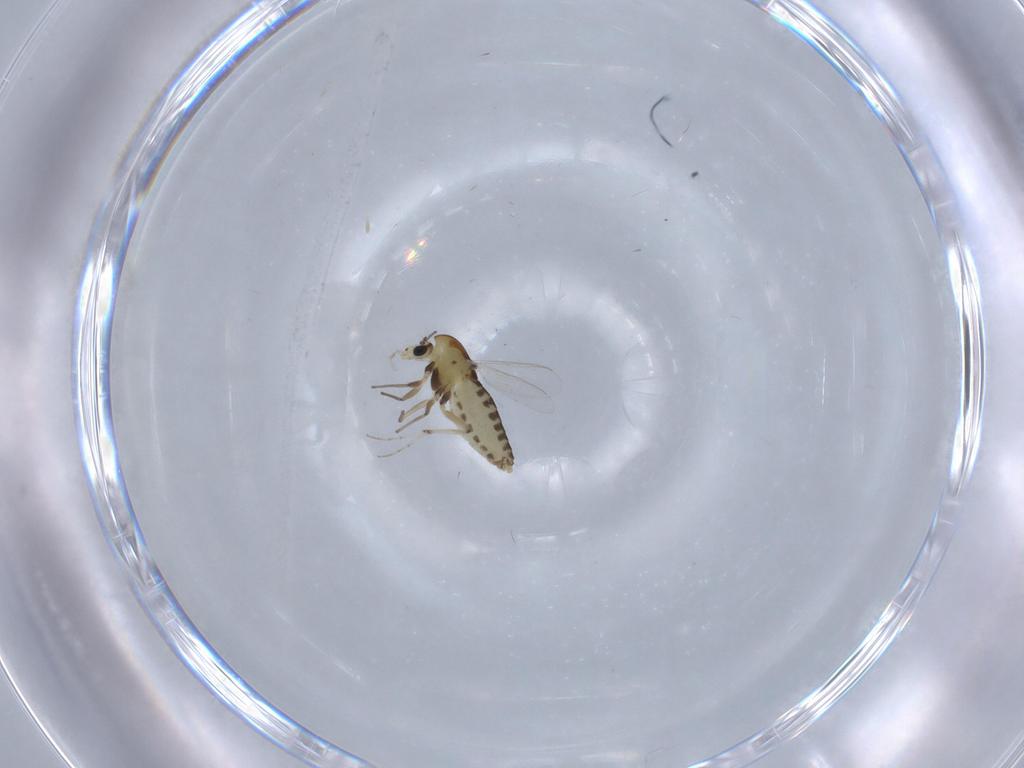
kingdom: Animalia
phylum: Arthropoda
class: Insecta
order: Diptera
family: Chironomidae
